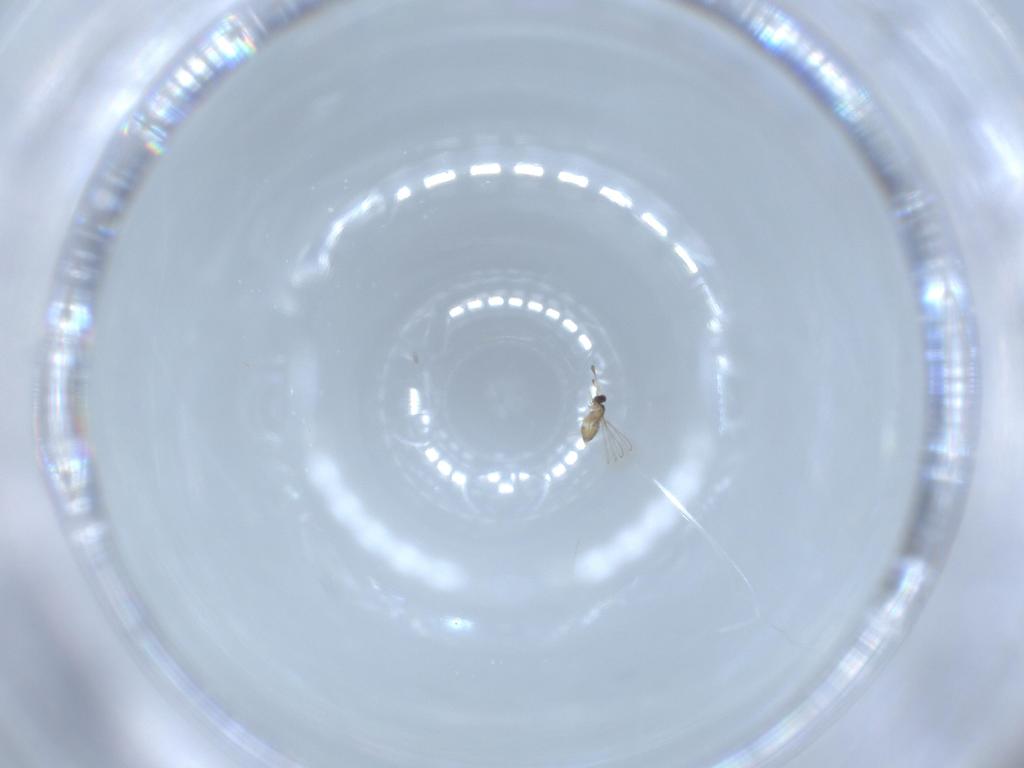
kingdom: Animalia
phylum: Arthropoda
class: Insecta
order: Hymenoptera
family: Mymaridae
